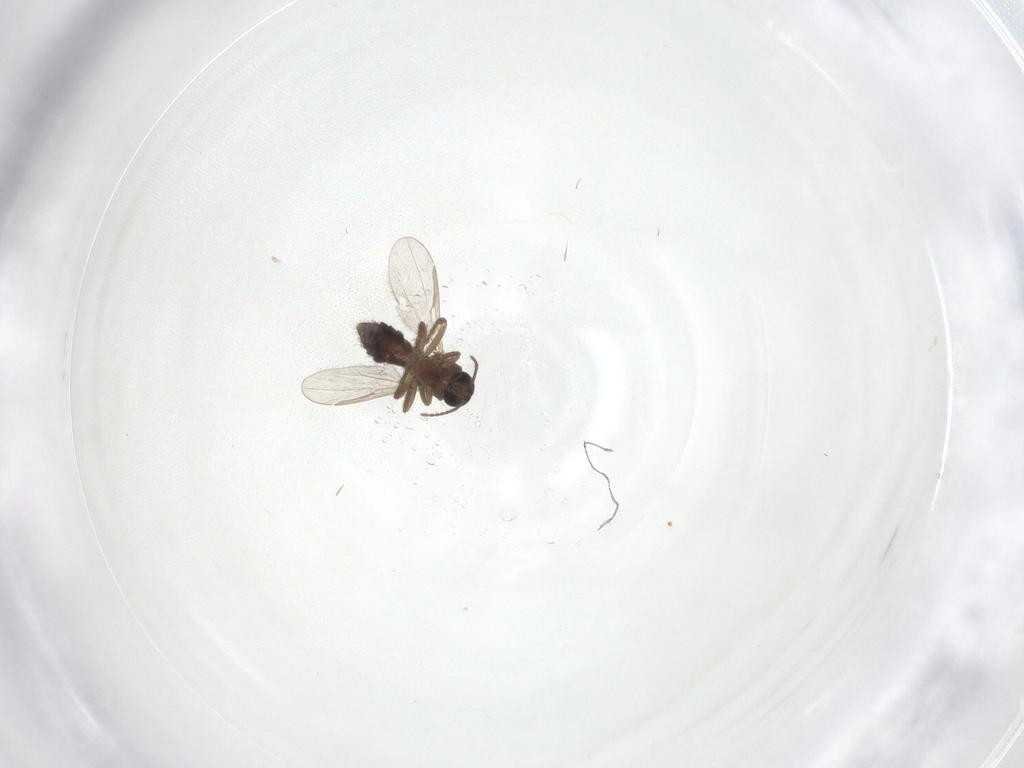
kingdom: Animalia
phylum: Arthropoda
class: Insecta
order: Diptera
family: Ceratopogonidae
